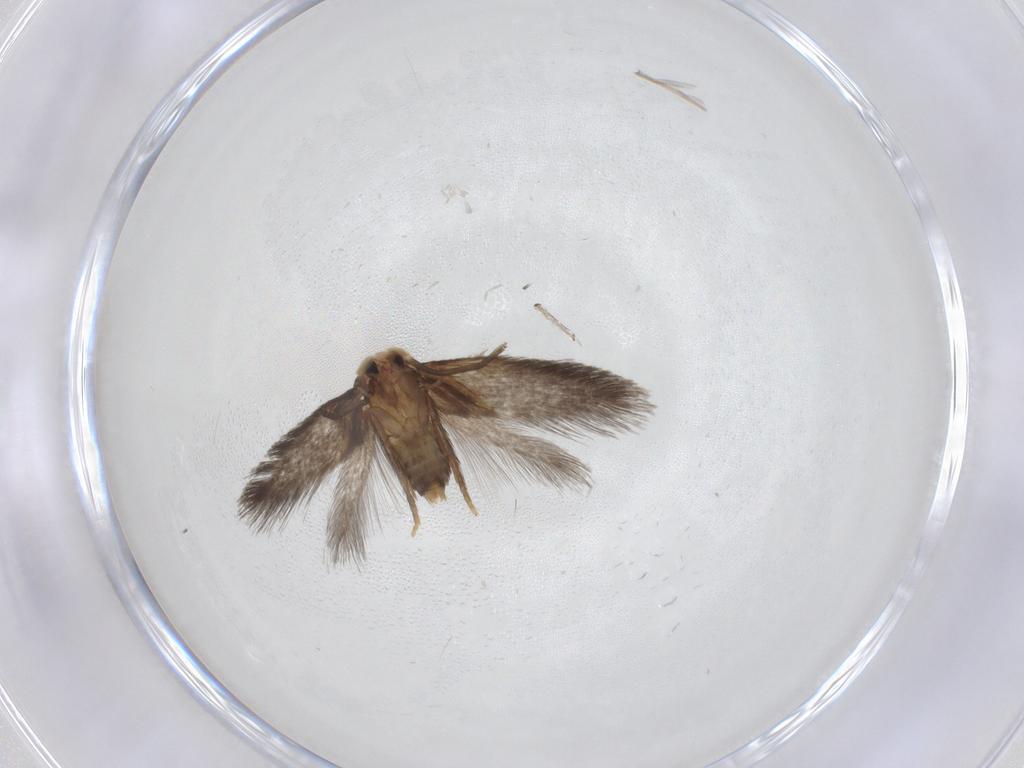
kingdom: Animalia
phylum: Arthropoda
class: Insecta
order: Lepidoptera
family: Nepticulidae
